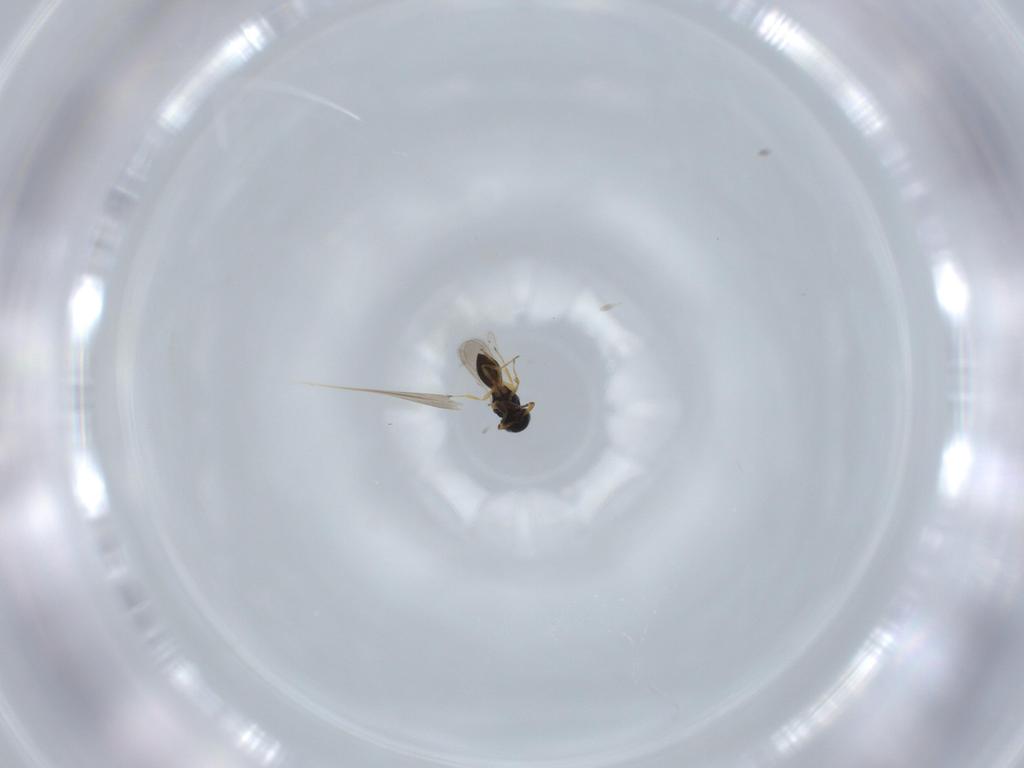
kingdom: Animalia
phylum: Arthropoda
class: Insecta
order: Hymenoptera
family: Scelionidae
